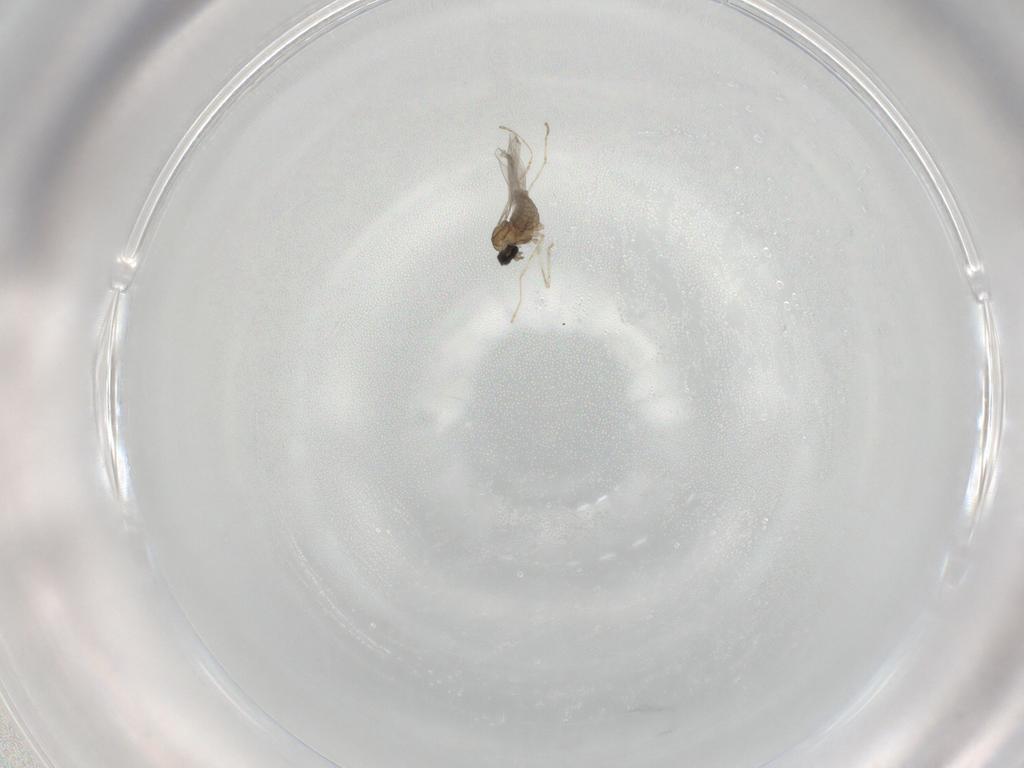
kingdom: Animalia
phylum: Arthropoda
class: Insecta
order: Diptera
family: Cecidomyiidae
